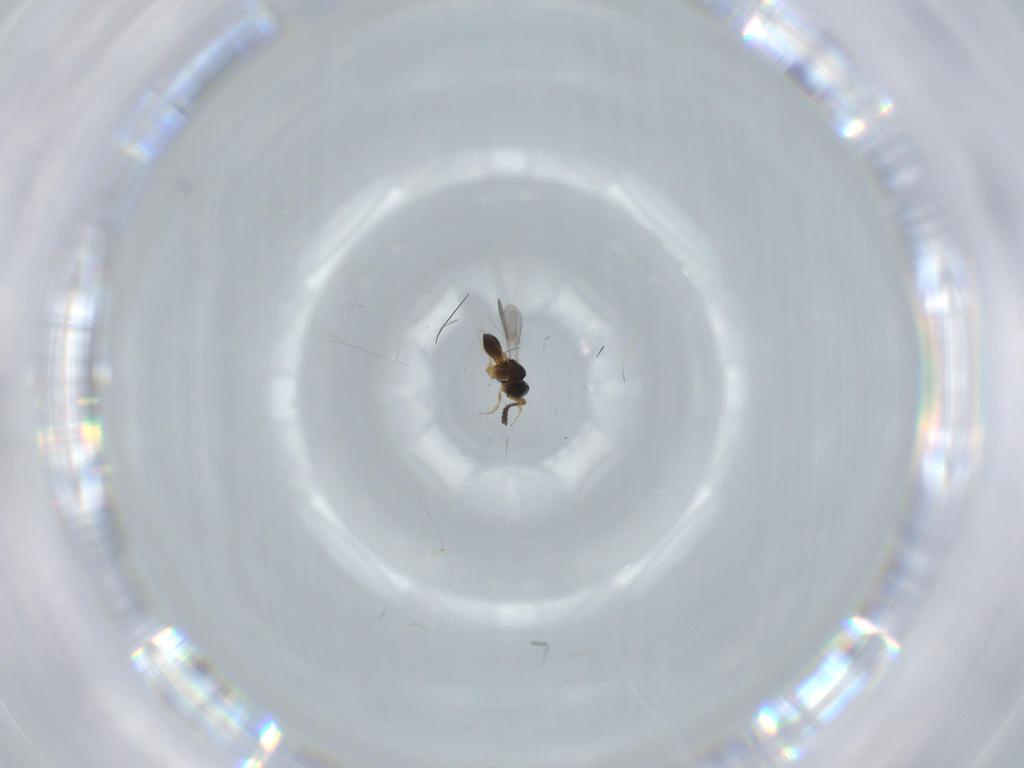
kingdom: Animalia
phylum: Arthropoda
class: Insecta
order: Hymenoptera
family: Scelionidae
